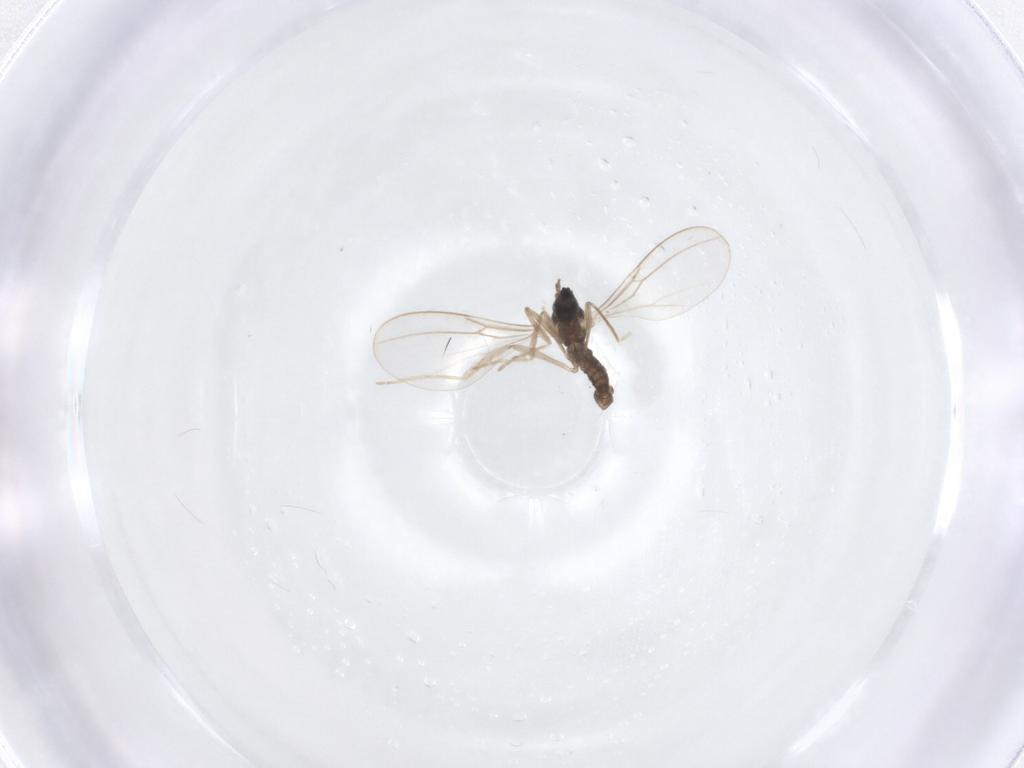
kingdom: Animalia
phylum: Arthropoda
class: Insecta
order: Diptera
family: Cecidomyiidae
